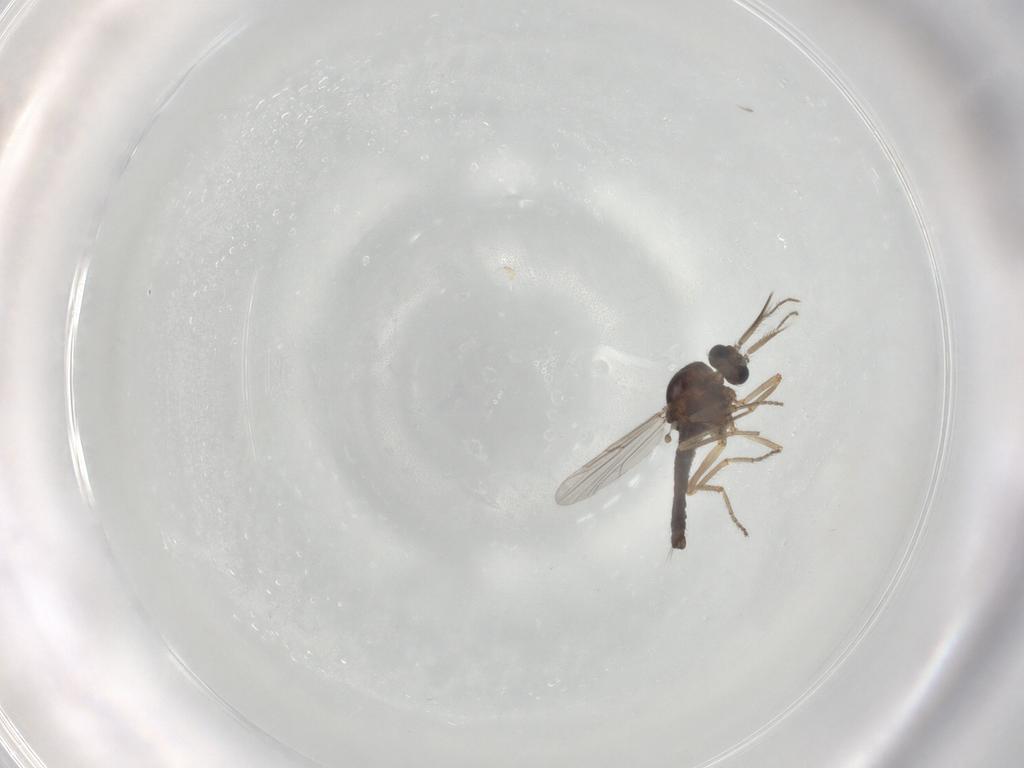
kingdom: Animalia
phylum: Arthropoda
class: Insecta
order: Diptera
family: Ceratopogonidae
